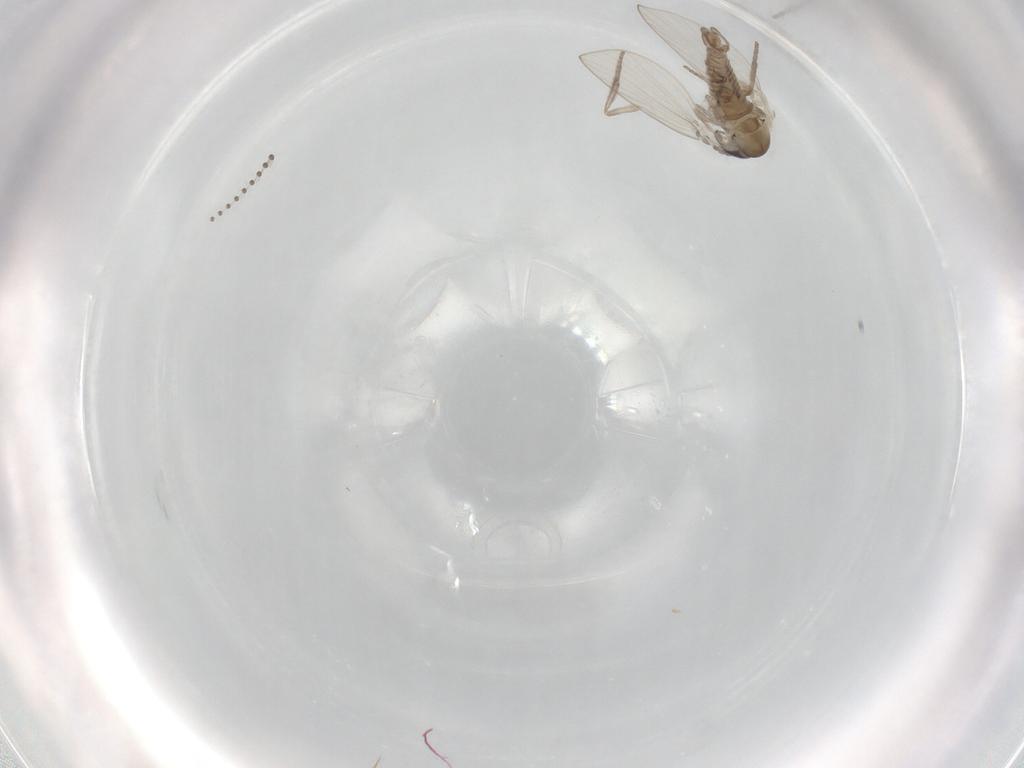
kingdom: Animalia
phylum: Arthropoda
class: Insecta
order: Diptera
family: Psychodidae
